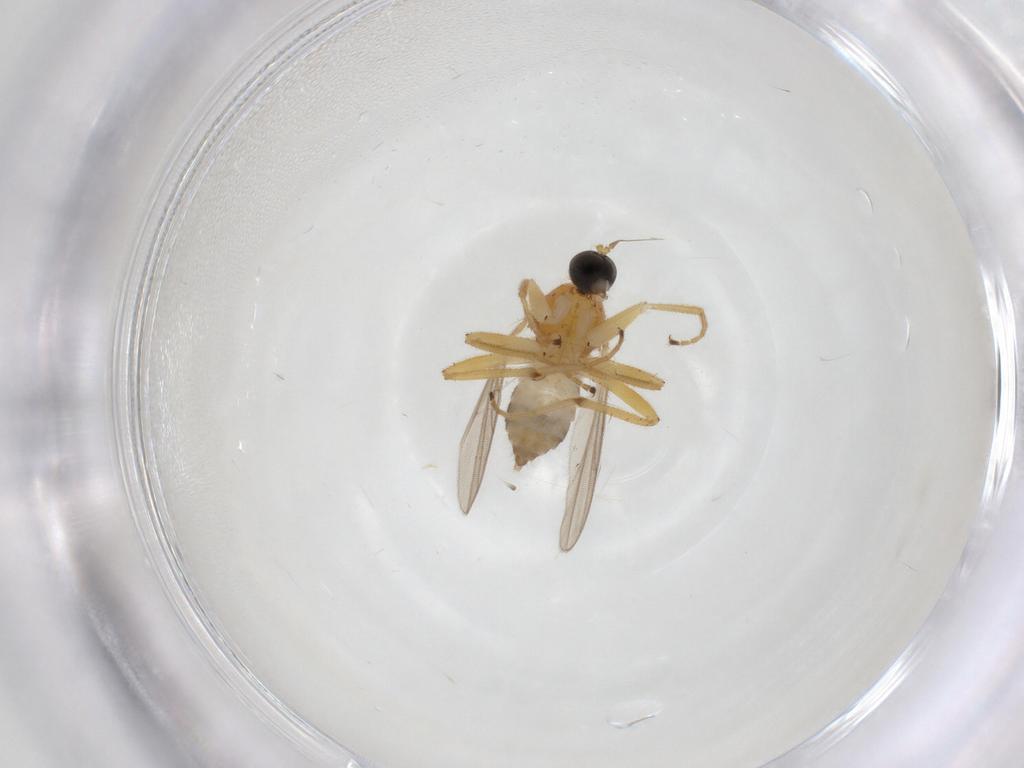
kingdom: Animalia
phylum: Arthropoda
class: Insecta
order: Diptera
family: Hybotidae
